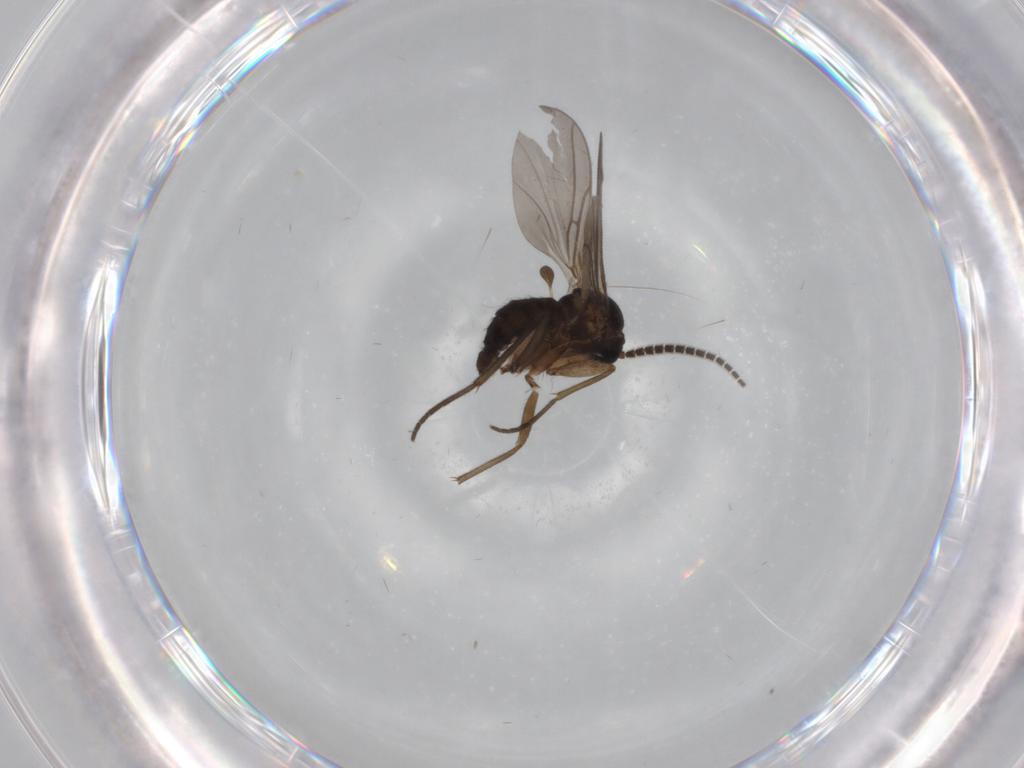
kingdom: Animalia
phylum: Arthropoda
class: Insecta
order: Diptera
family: Sciaridae
